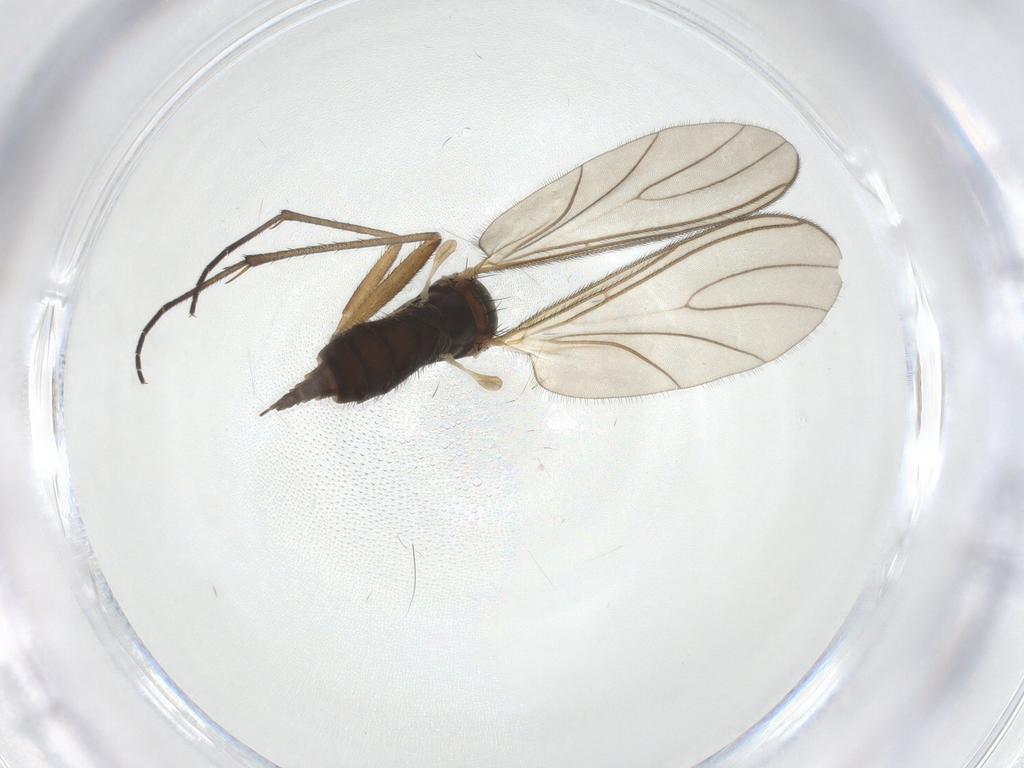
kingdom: Animalia
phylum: Arthropoda
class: Insecta
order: Diptera
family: Sciaridae
